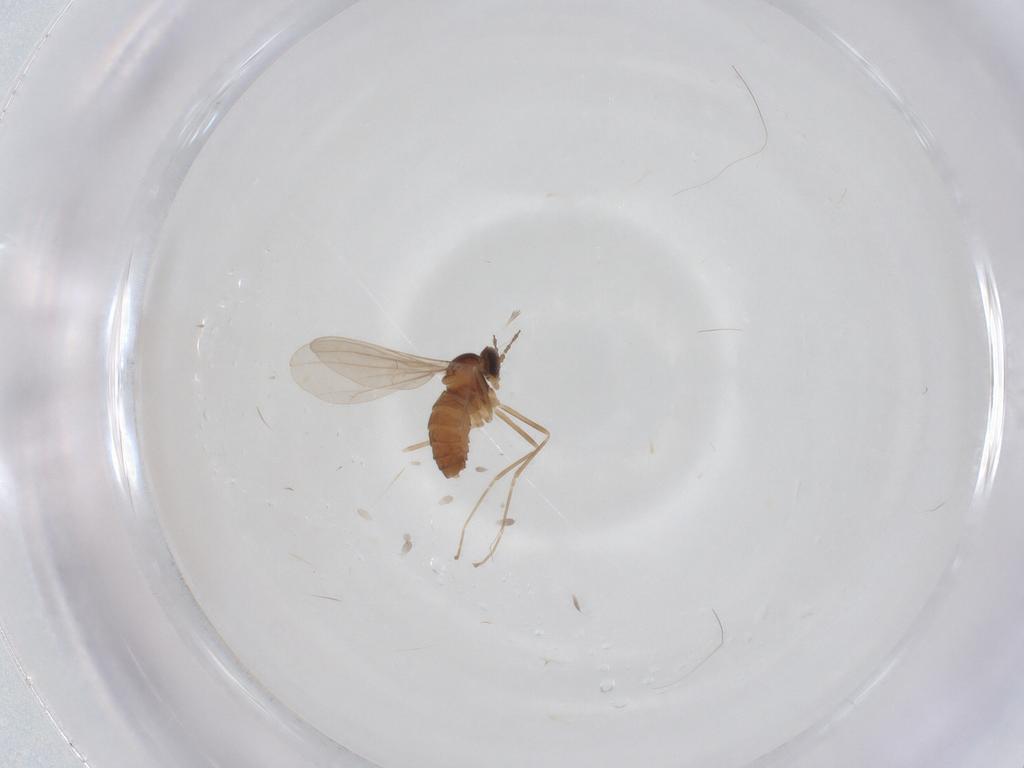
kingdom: Animalia
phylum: Arthropoda
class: Insecta
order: Diptera
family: Cecidomyiidae
